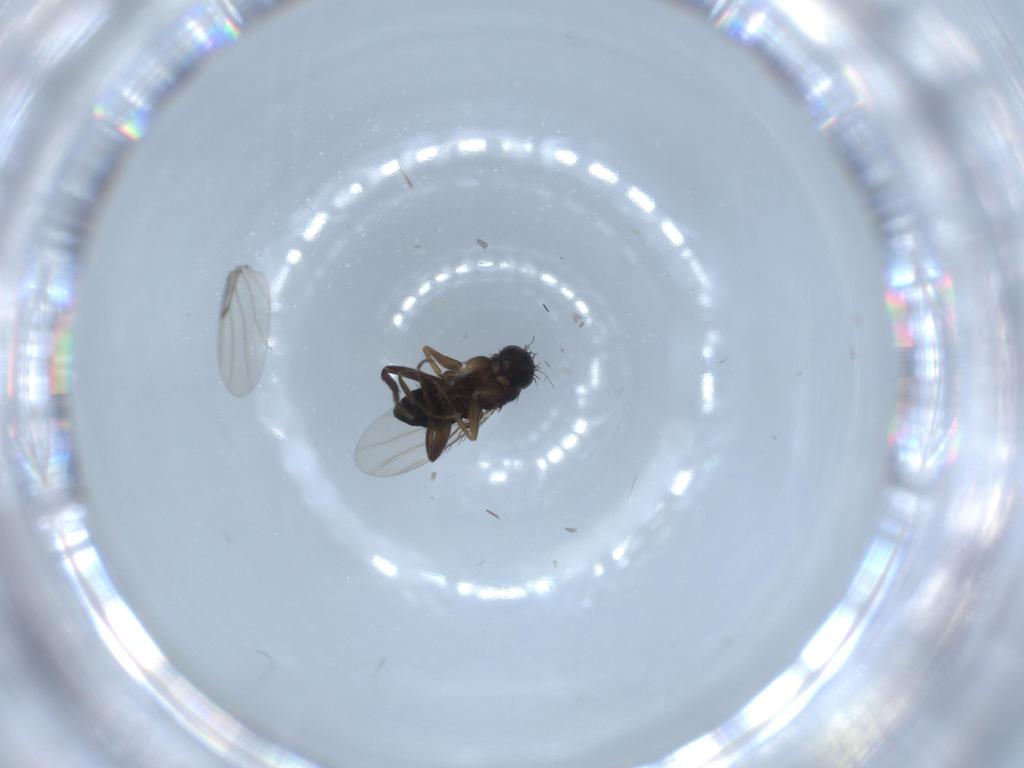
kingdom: Animalia
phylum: Arthropoda
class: Insecta
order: Diptera
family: Phoridae
